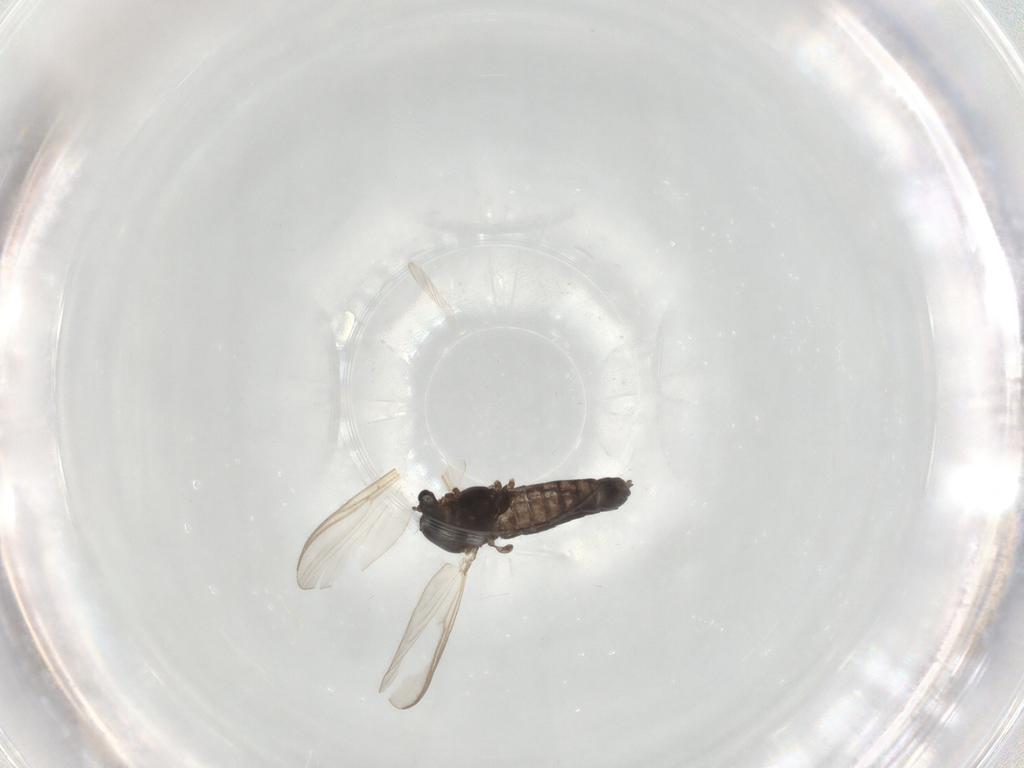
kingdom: Animalia
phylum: Arthropoda
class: Insecta
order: Diptera
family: Chironomidae
